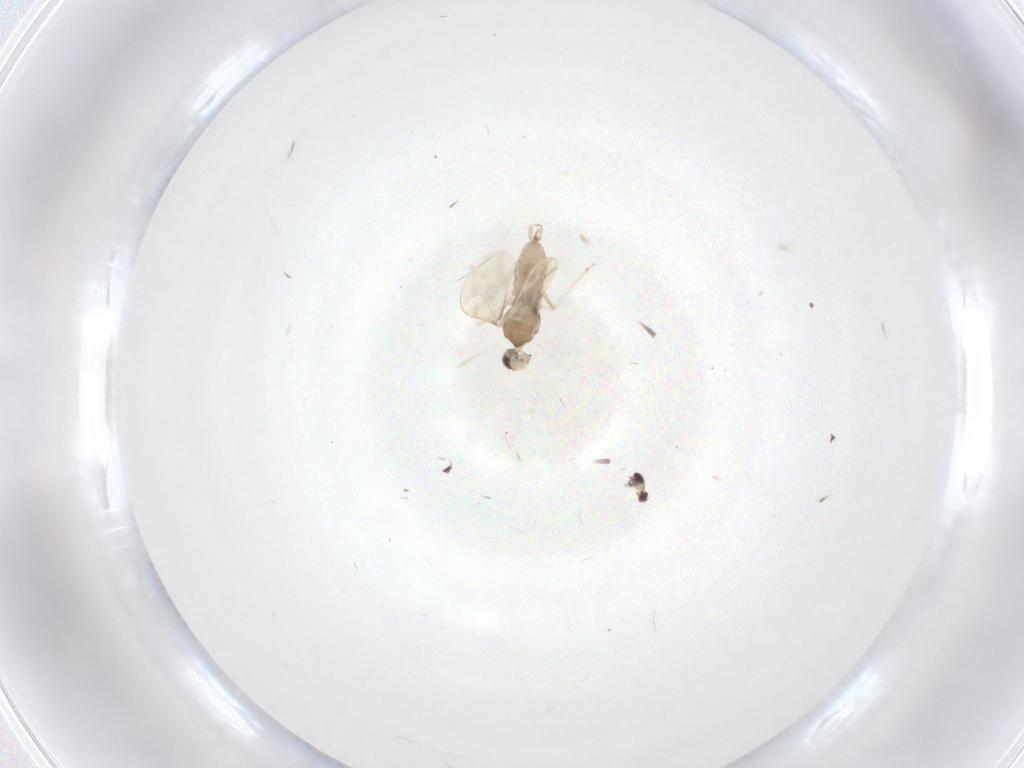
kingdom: Animalia
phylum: Arthropoda
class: Insecta
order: Diptera
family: Cecidomyiidae
